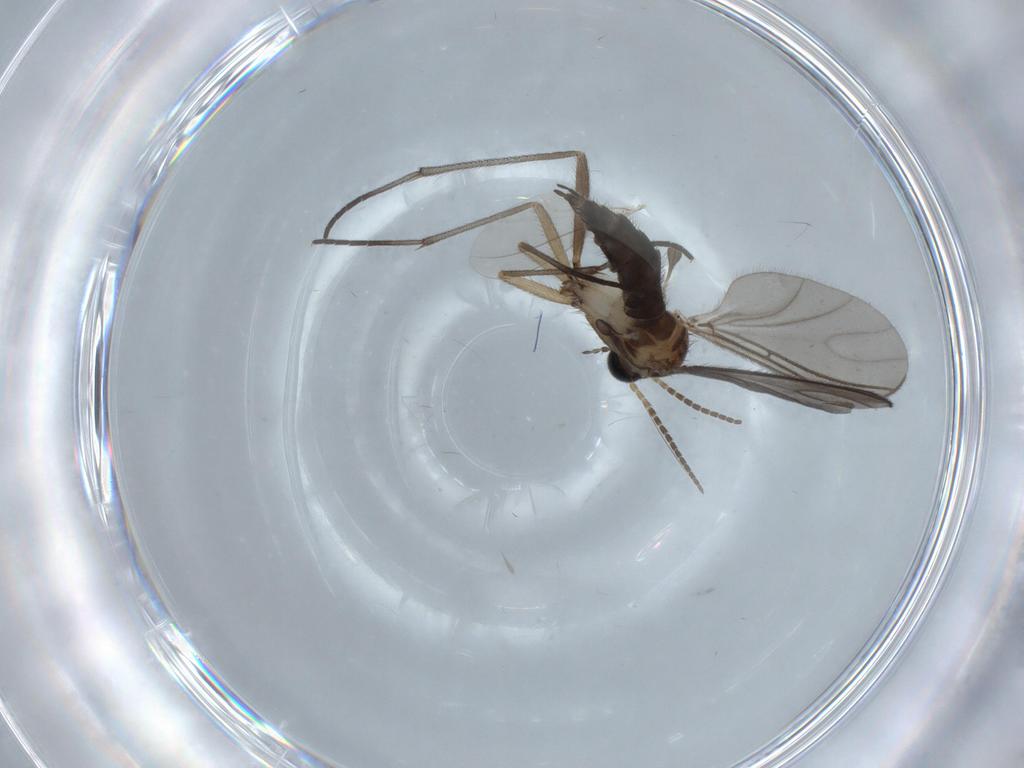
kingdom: Animalia
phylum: Arthropoda
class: Insecta
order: Diptera
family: Sciaridae
